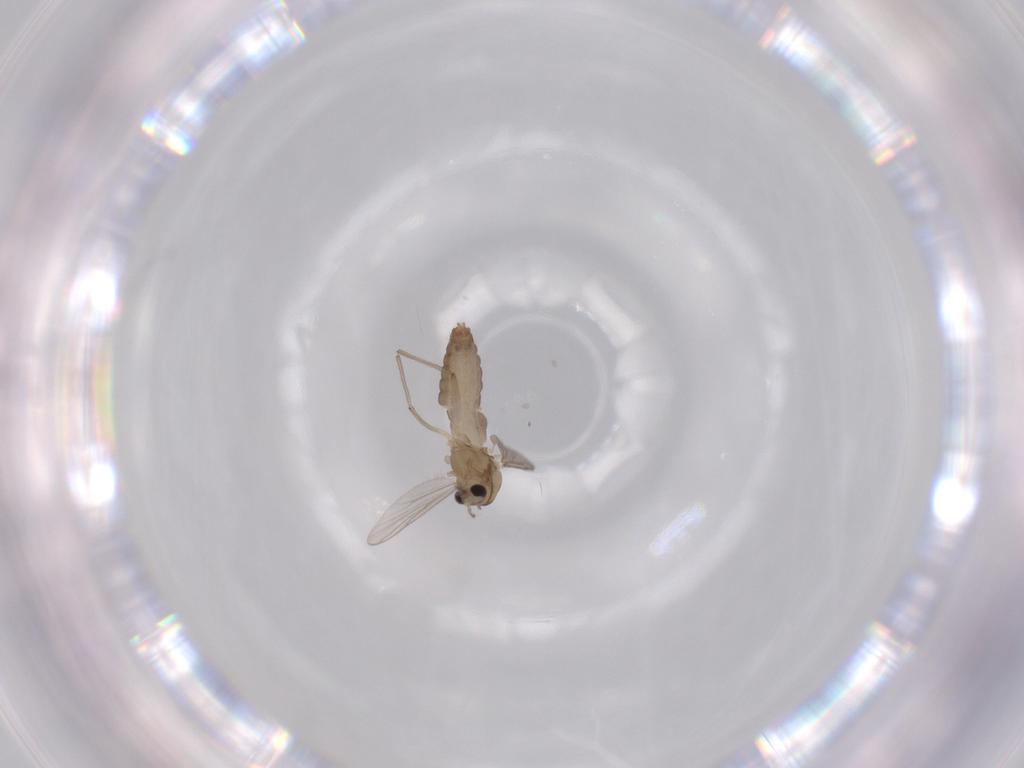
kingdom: Animalia
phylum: Arthropoda
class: Insecta
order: Diptera
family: Chironomidae
